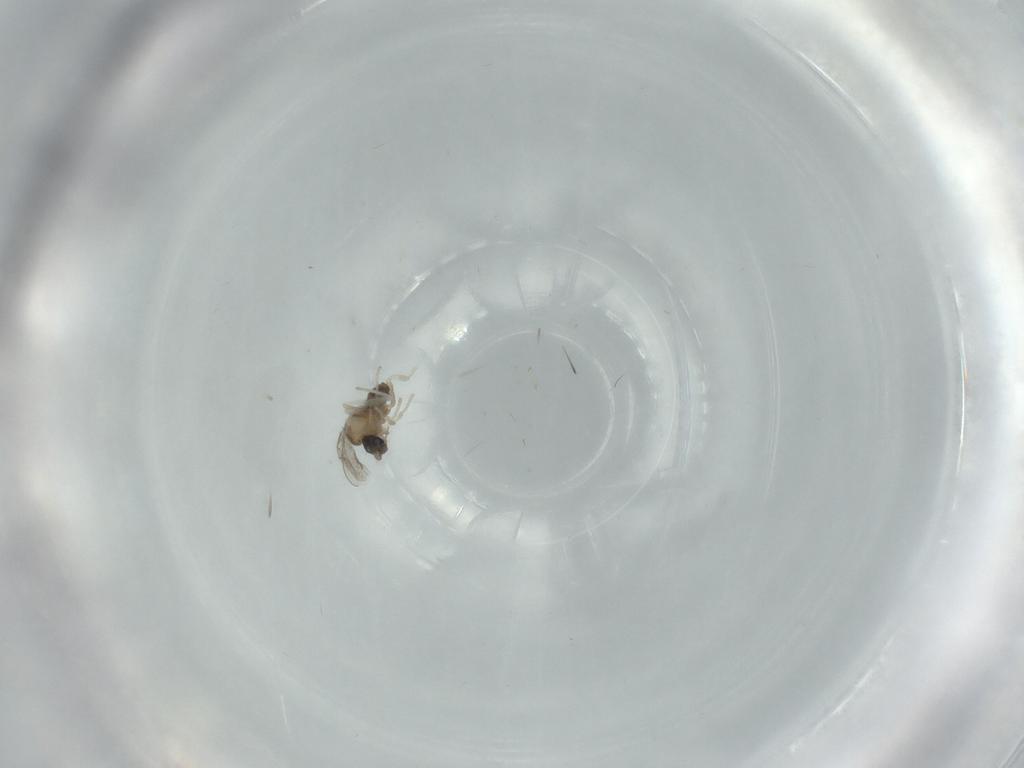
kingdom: Animalia
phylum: Arthropoda
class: Insecta
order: Diptera
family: Phoridae
